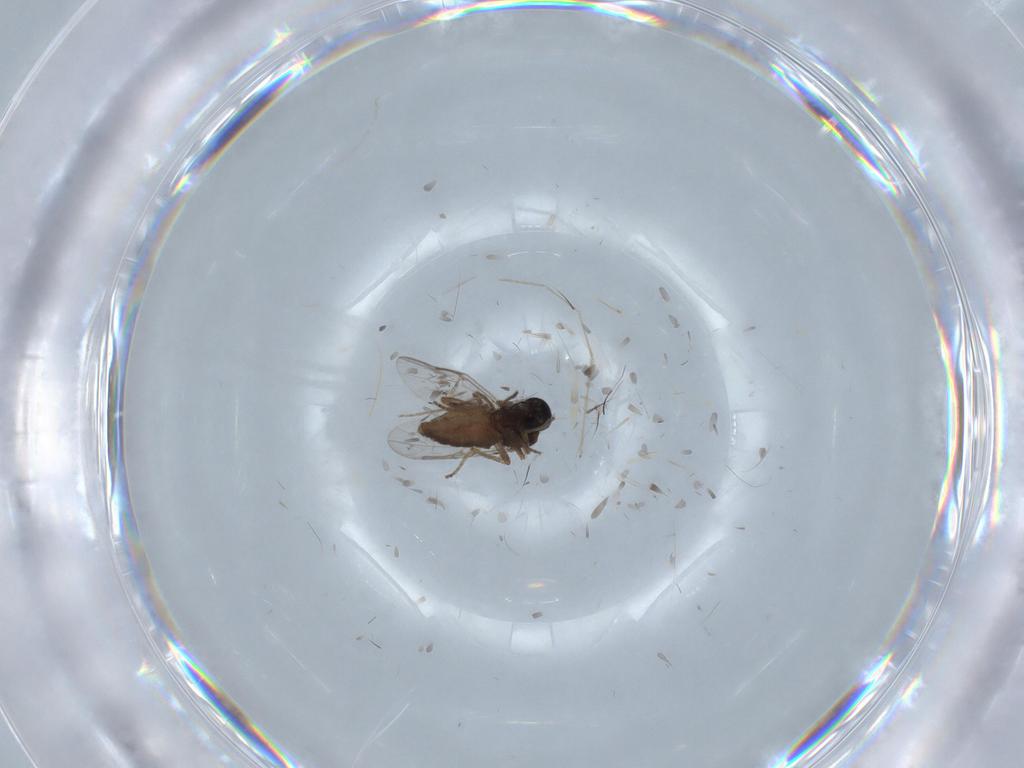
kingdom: Animalia
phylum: Arthropoda
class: Insecta
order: Diptera
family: Ceratopogonidae
